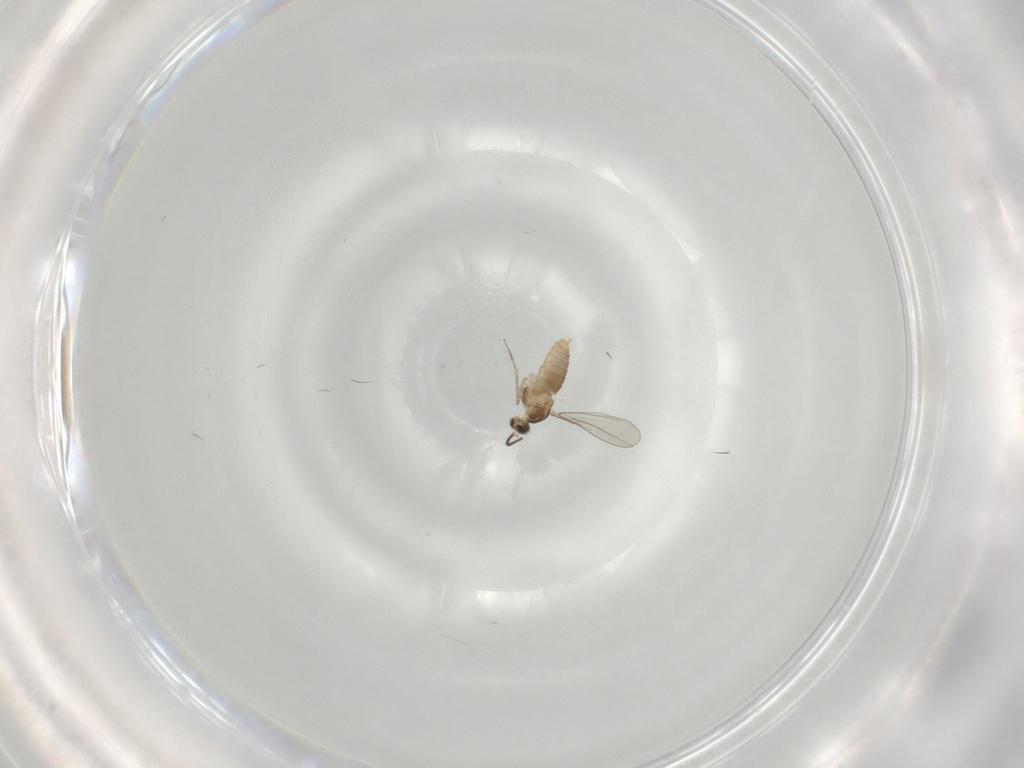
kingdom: Animalia
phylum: Arthropoda
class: Insecta
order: Diptera
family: Cecidomyiidae
